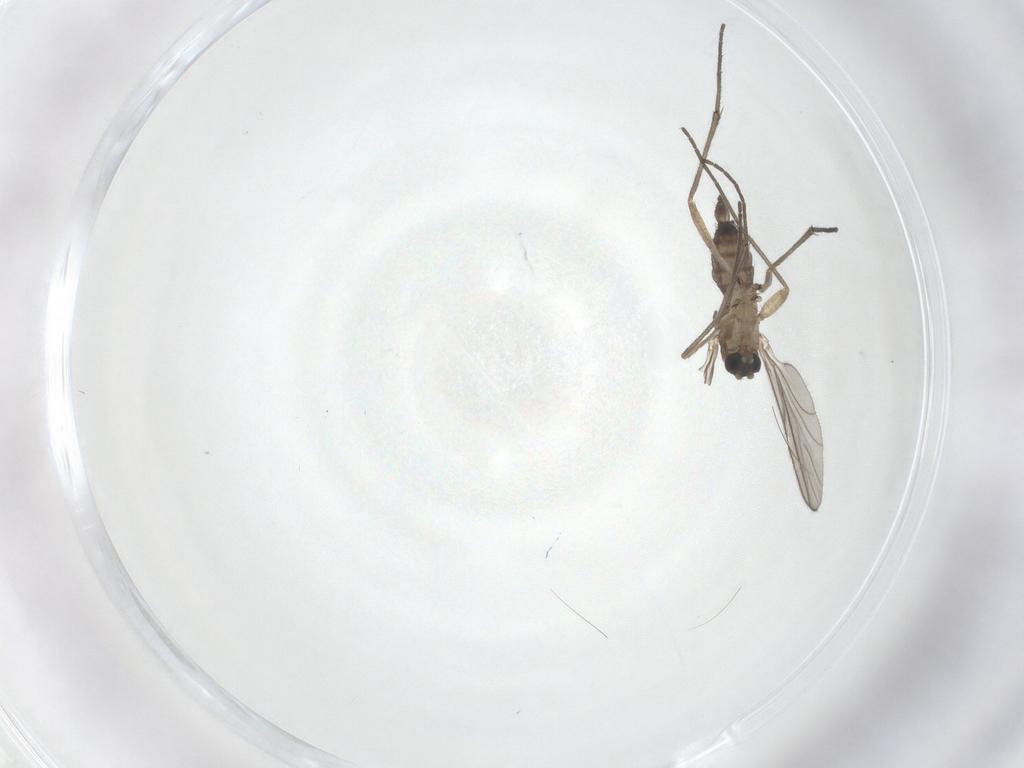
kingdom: Animalia
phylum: Arthropoda
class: Insecta
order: Diptera
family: Sciaridae
